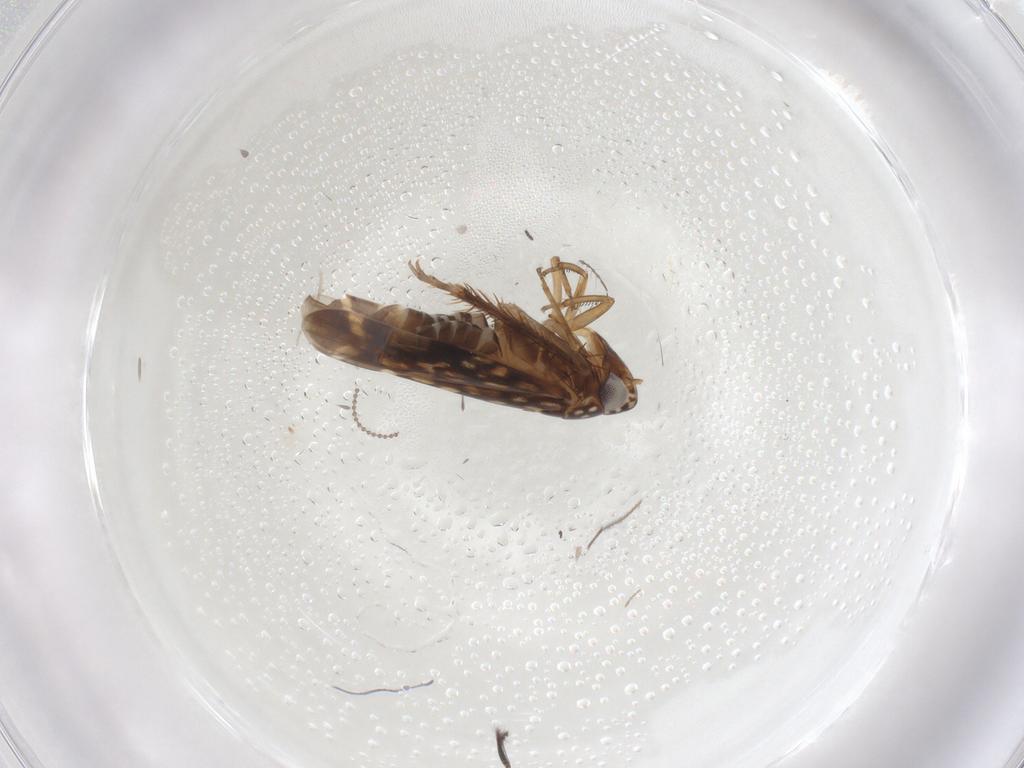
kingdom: Animalia
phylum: Arthropoda
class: Insecta
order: Hemiptera
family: Cicadellidae
